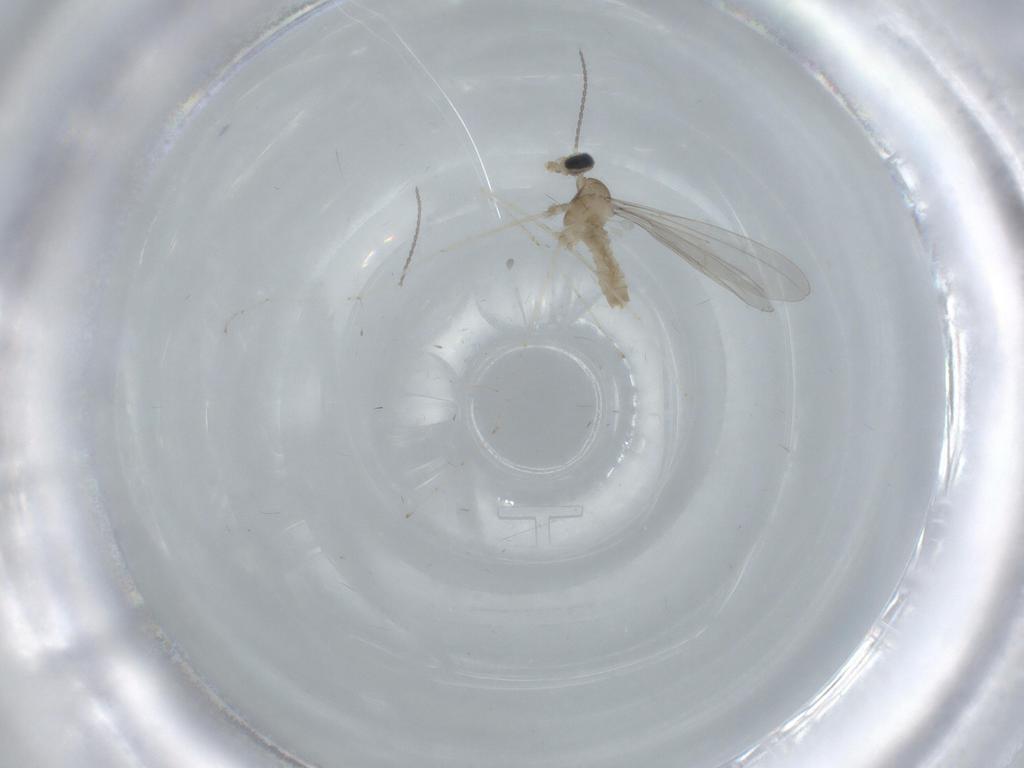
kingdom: Animalia
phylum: Arthropoda
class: Insecta
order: Diptera
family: Cecidomyiidae
